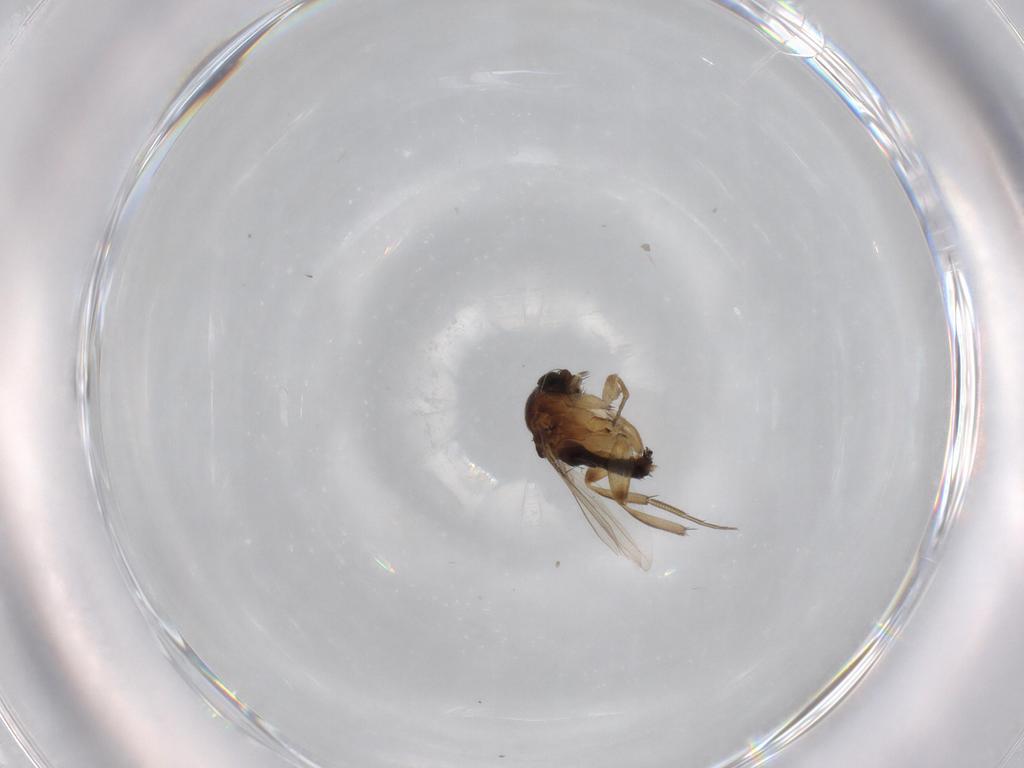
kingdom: Animalia
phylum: Arthropoda
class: Insecta
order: Diptera
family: Phoridae
